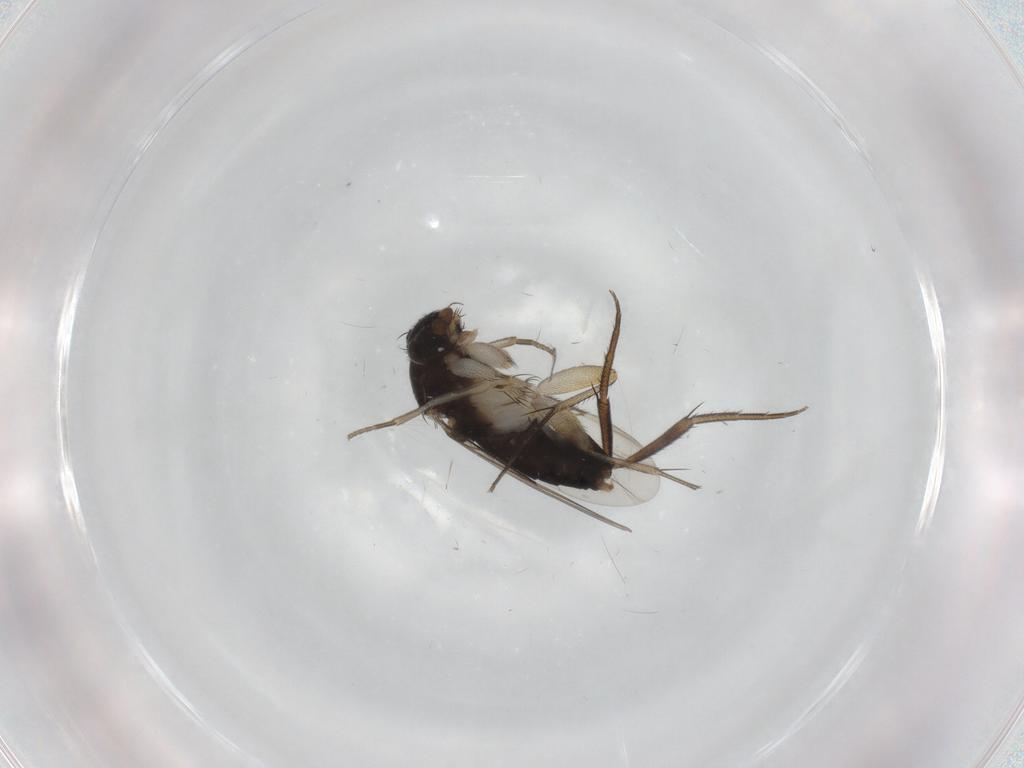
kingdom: Animalia
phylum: Arthropoda
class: Insecta
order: Diptera
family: Phoridae
